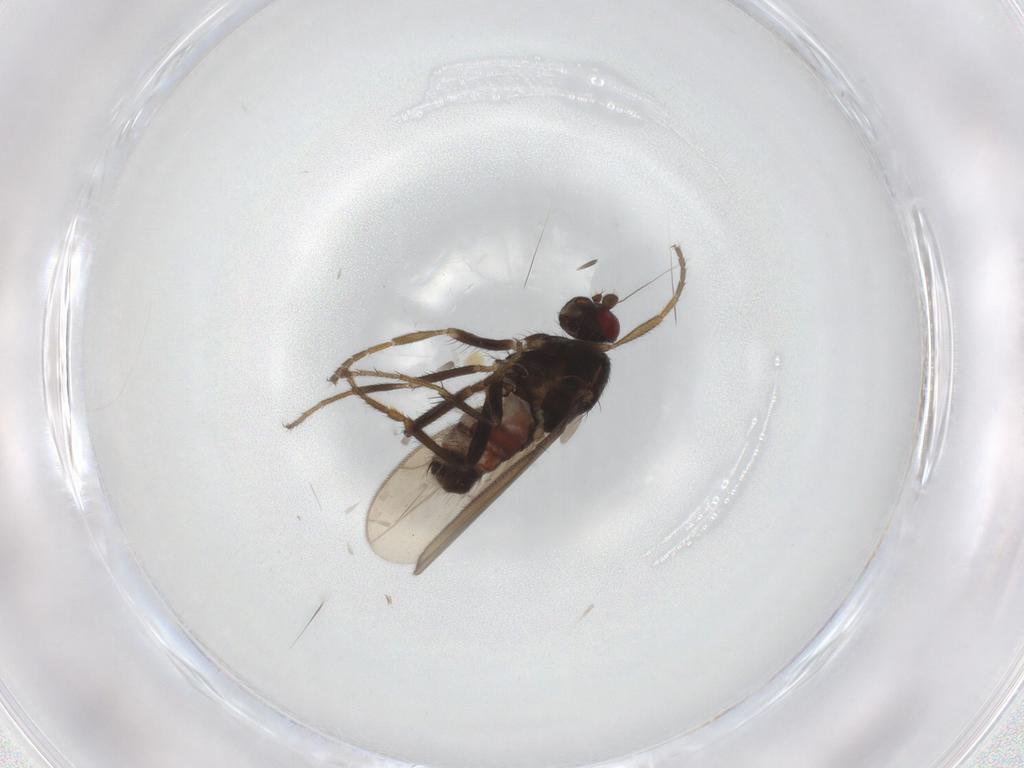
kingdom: Animalia
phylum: Arthropoda
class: Insecta
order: Diptera
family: Sphaeroceridae
